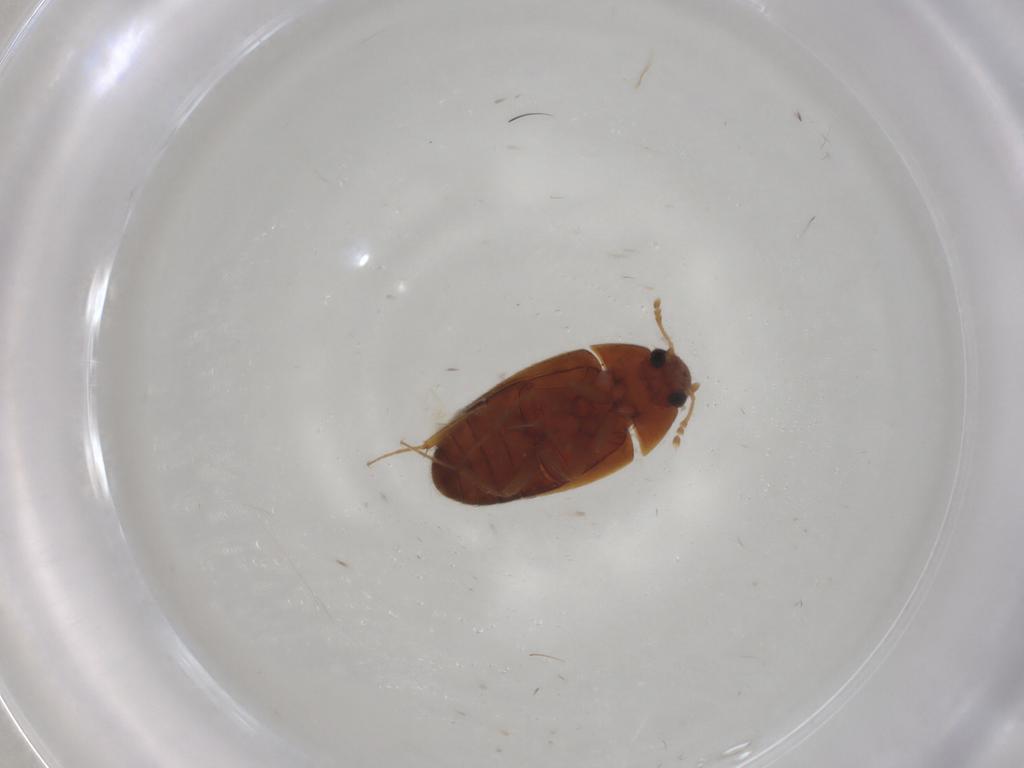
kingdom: Animalia
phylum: Arthropoda
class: Insecta
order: Coleoptera
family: Mycetophagidae
